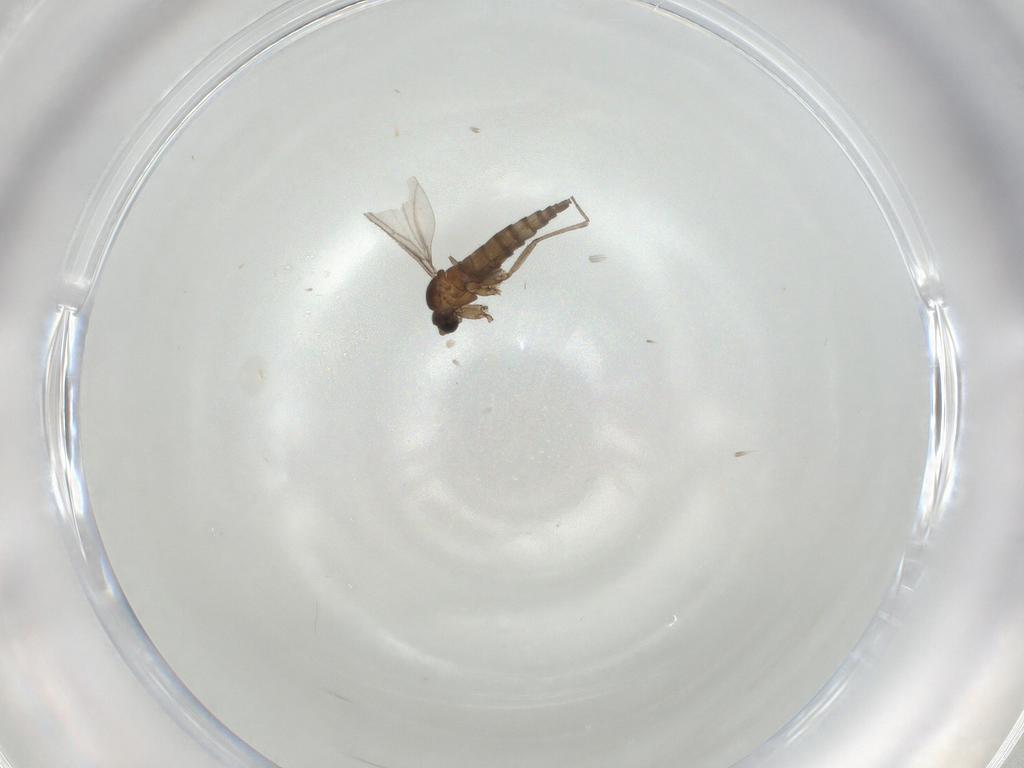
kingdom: Animalia
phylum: Arthropoda
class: Insecta
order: Diptera
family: Sciaridae
